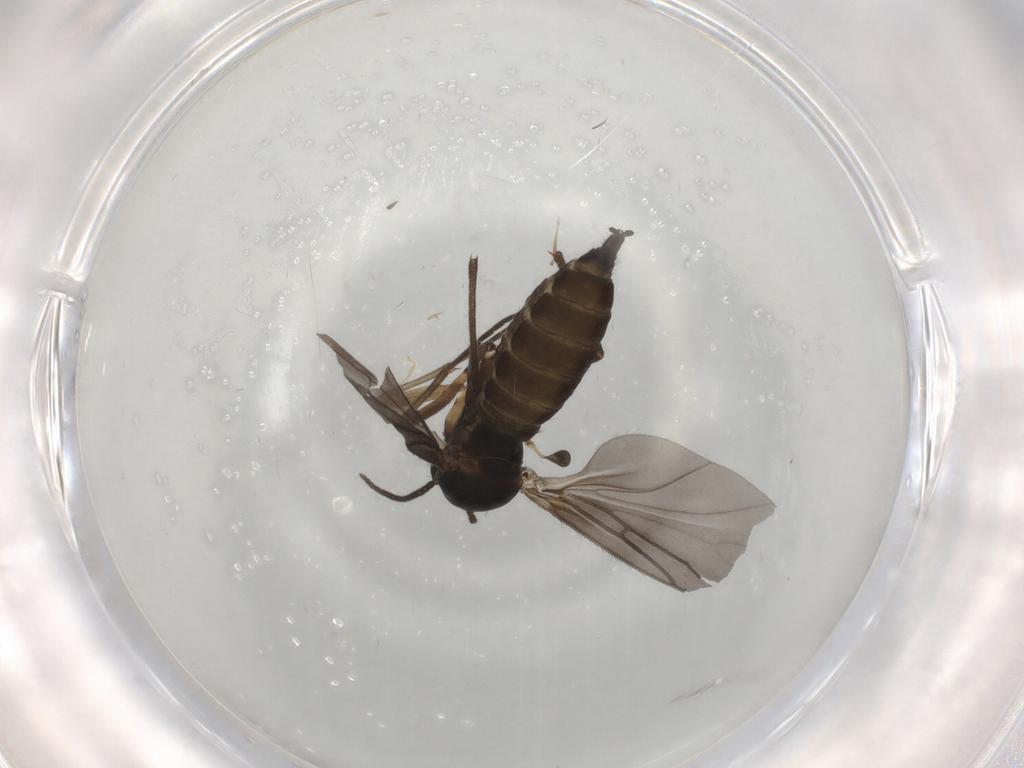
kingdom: Animalia
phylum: Arthropoda
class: Insecta
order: Diptera
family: Sciaridae
